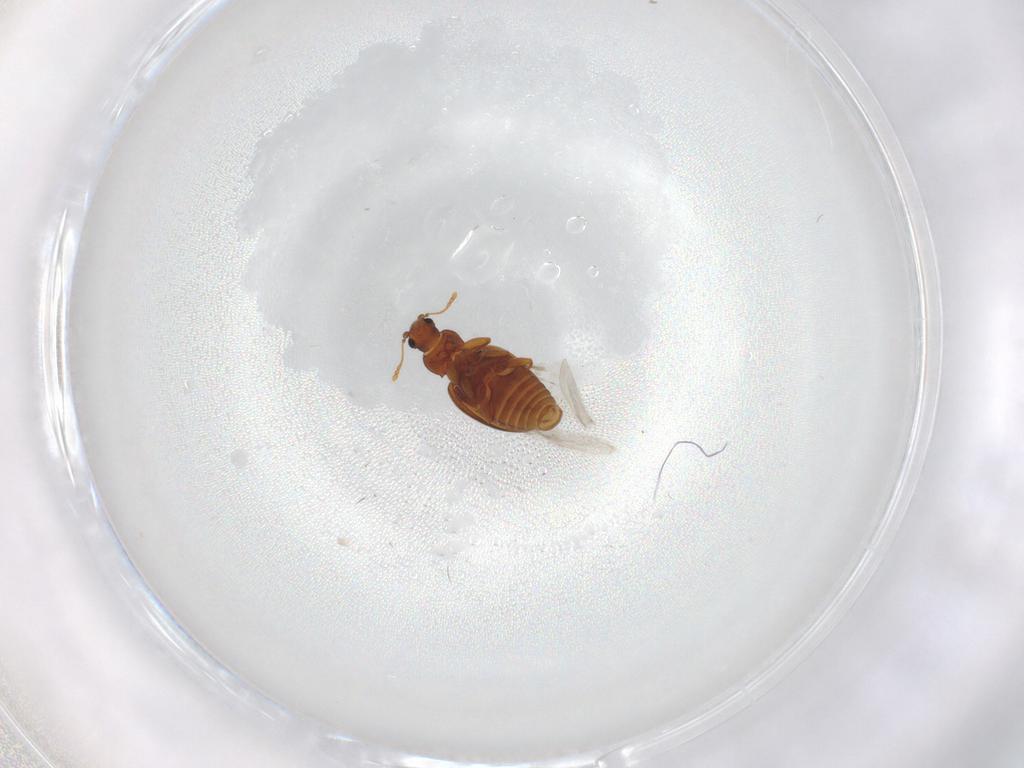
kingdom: Animalia
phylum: Arthropoda
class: Insecta
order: Coleoptera
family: Latridiidae
